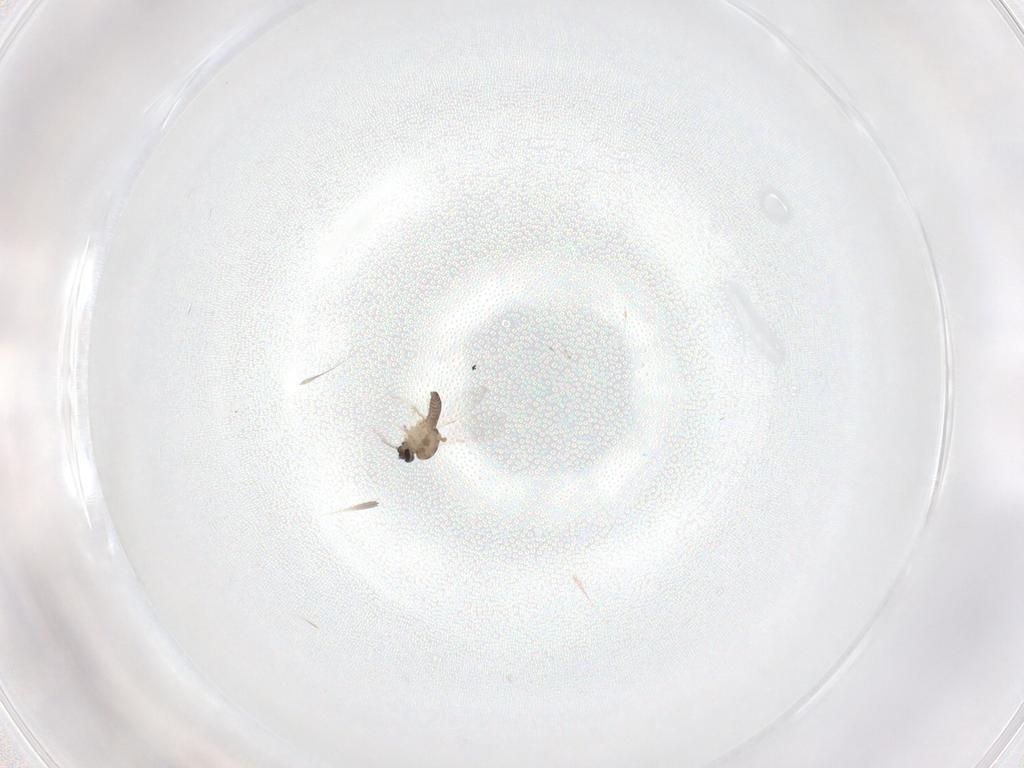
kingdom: Animalia
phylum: Arthropoda
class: Insecta
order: Diptera
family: Ceratopogonidae
